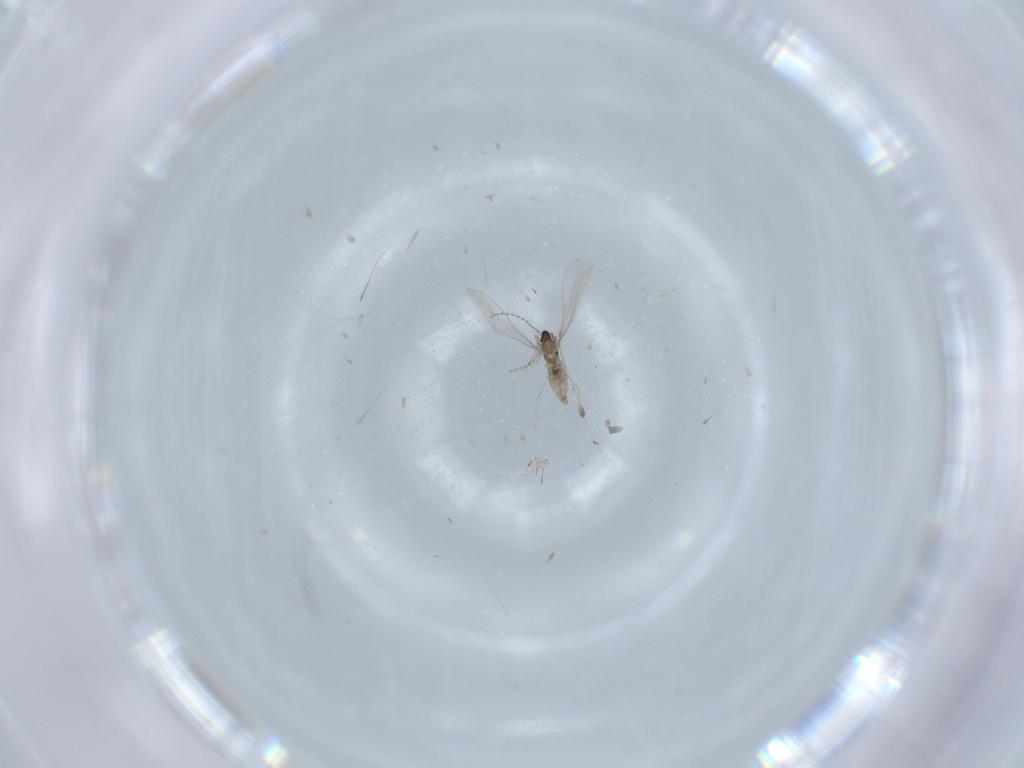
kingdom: Animalia
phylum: Arthropoda
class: Insecta
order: Diptera
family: Cecidomyiidae
